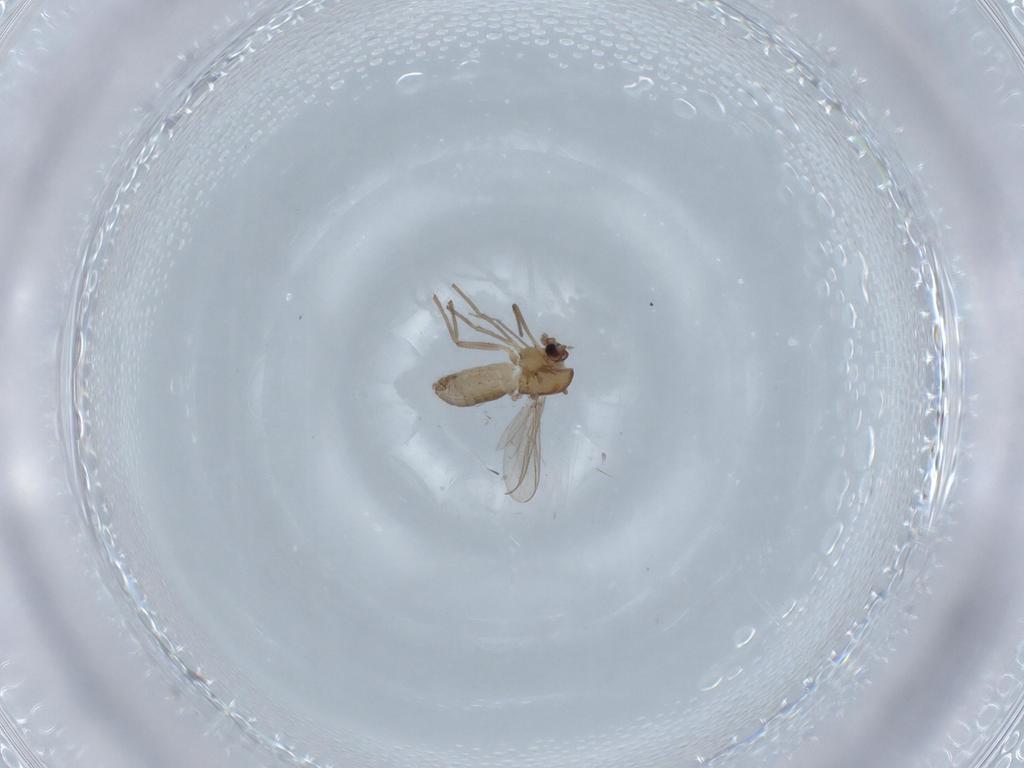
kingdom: Animalia
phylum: Arthropoda
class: Insecta
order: Diptera
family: Chironomidae
